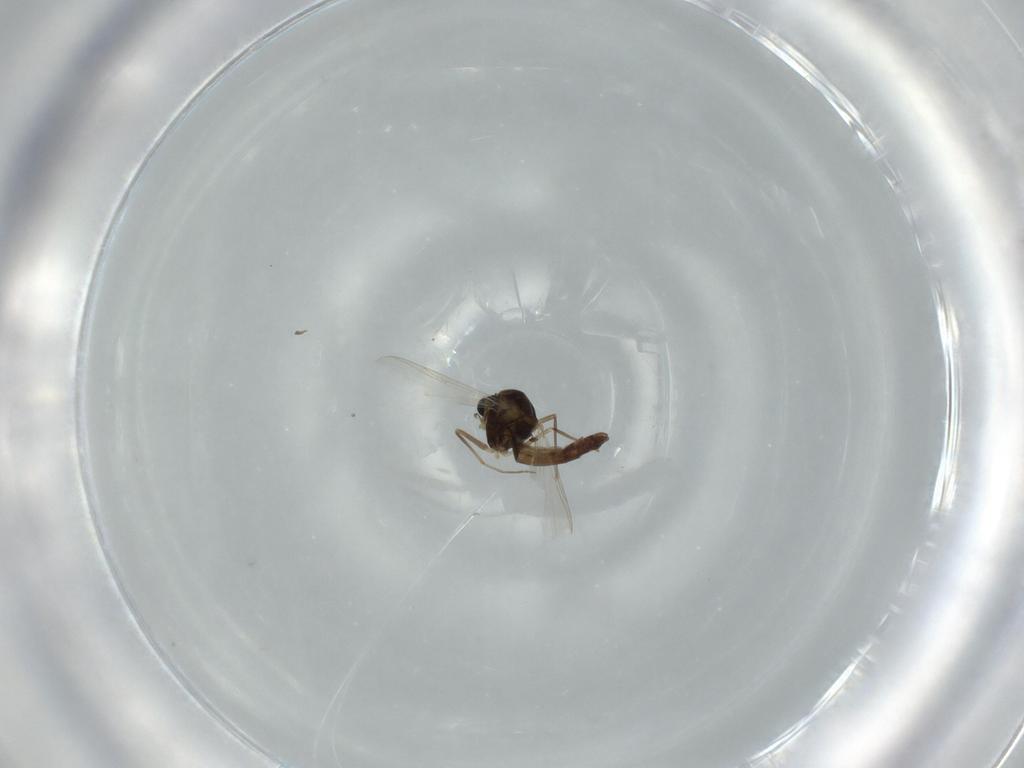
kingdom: Animalia
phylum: Arthropoda
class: Insecta
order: Diptera
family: Chironomidae
